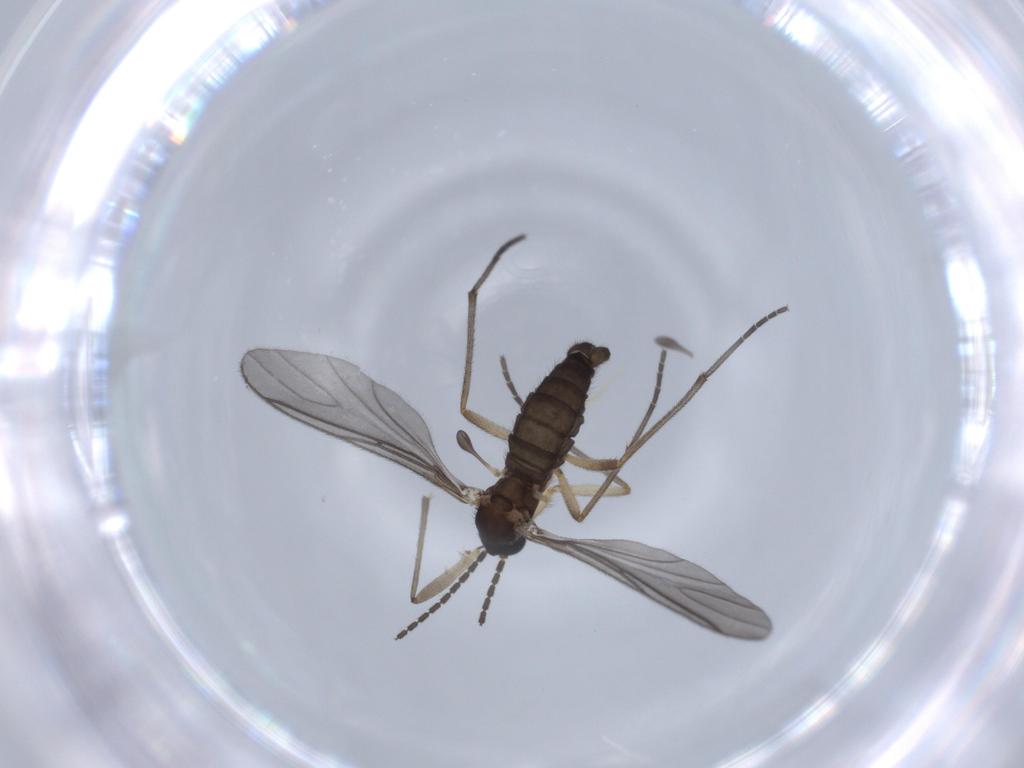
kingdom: Animalia
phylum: Arthropoda
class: Insecta
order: Diptera
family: Sciaridae
